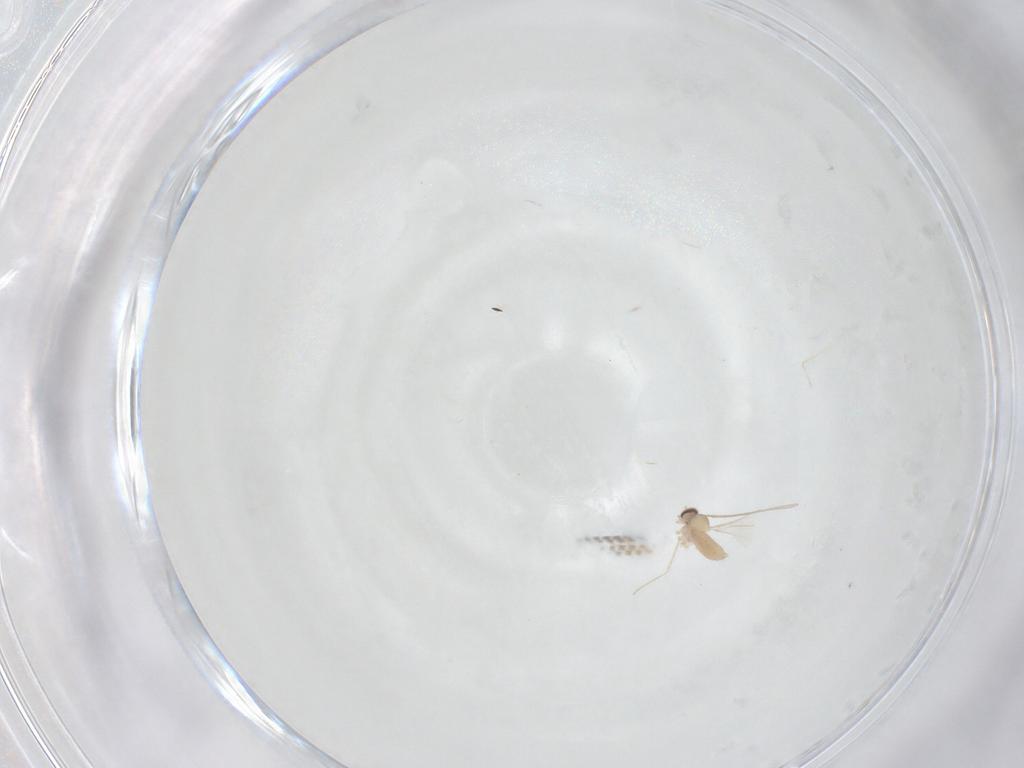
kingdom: Animalia
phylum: Arthropoda
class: Insecta
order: Diptera
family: Cecidomyiidae
